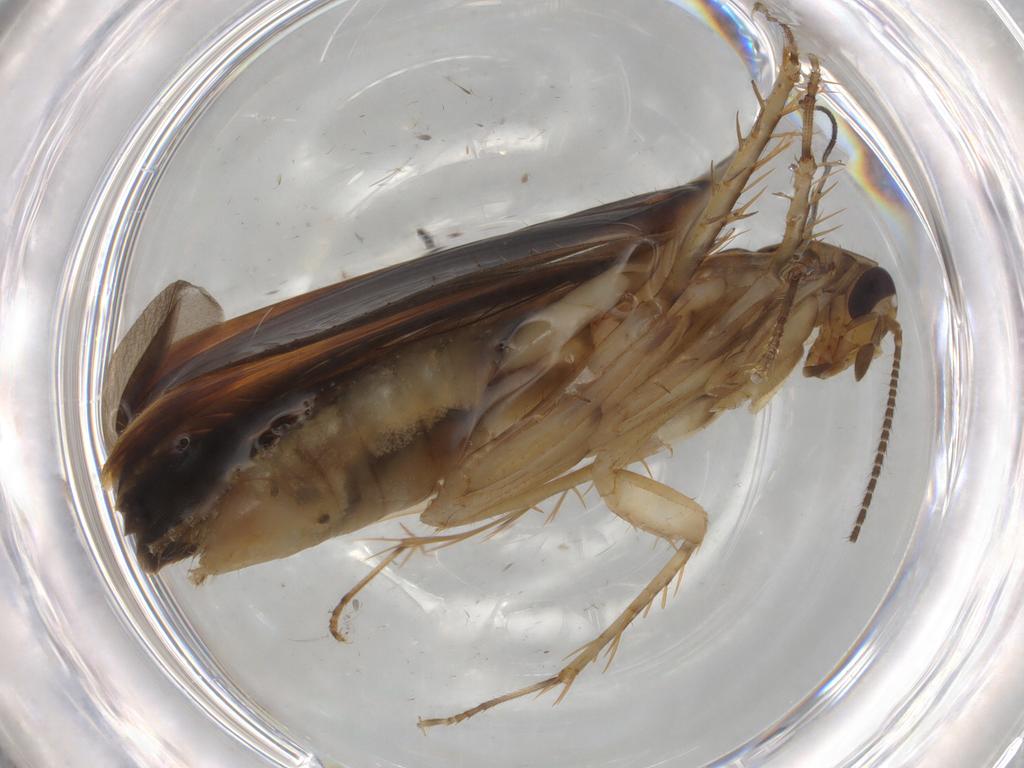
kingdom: Animalia
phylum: Arthropoda
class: Insecta
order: Blattodea
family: Ectobiidae
